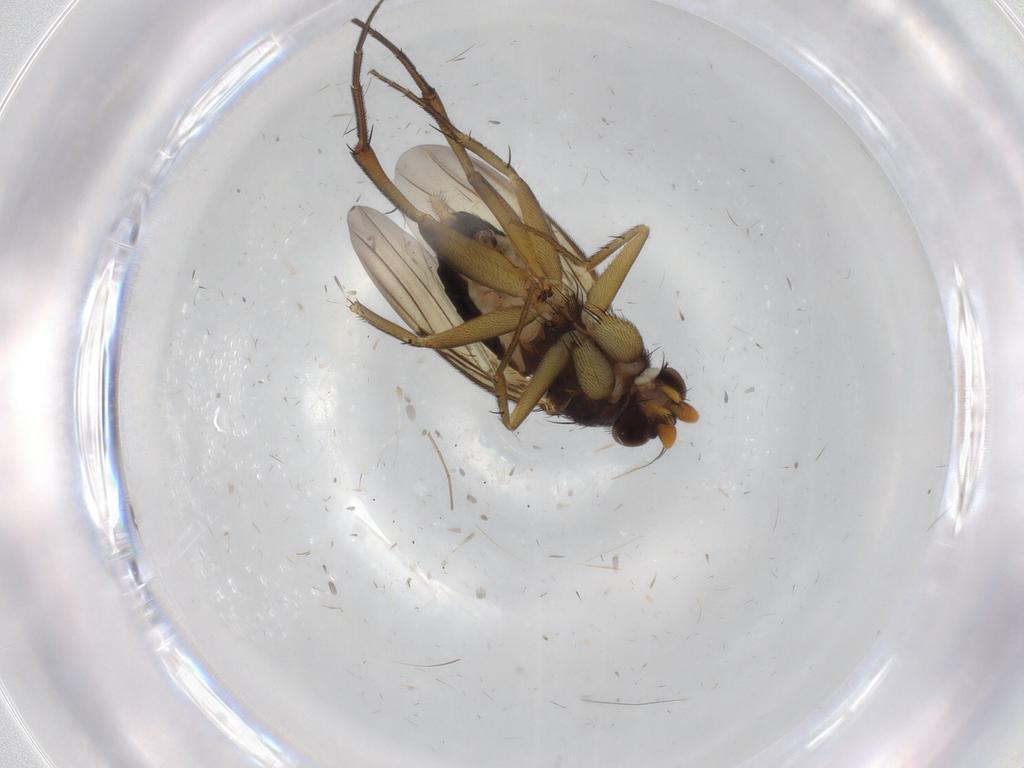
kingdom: Animalia
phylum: Arthropoda
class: Insecta
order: Diptera
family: Phoridae
